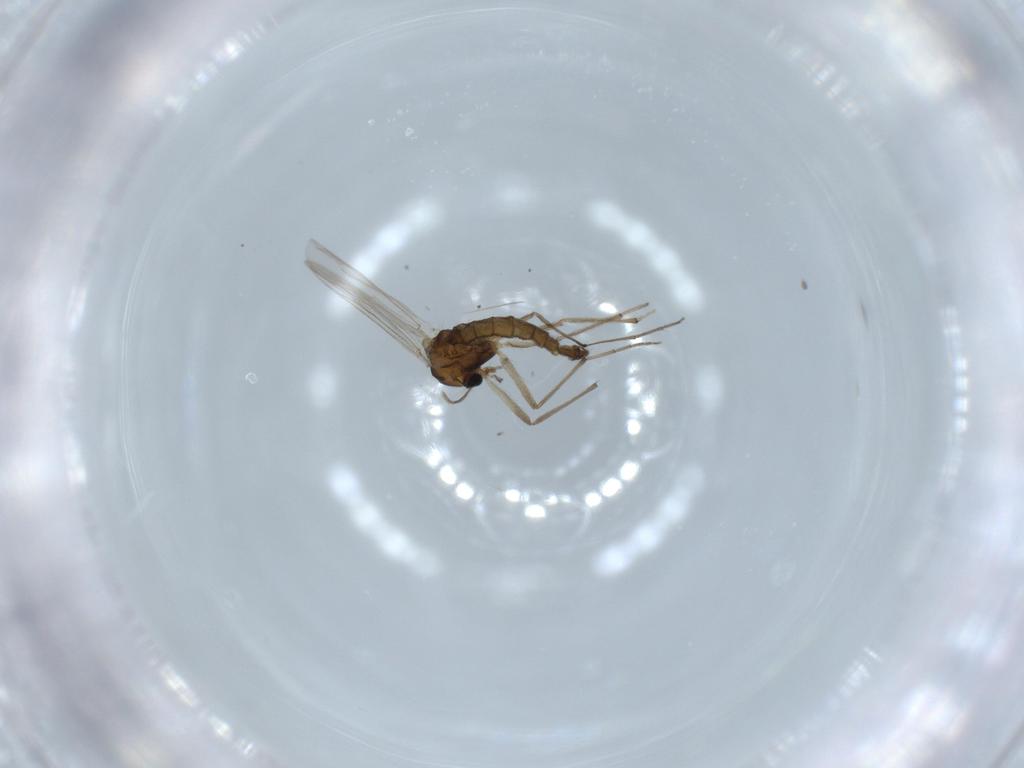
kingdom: Animalia
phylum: Arthropoda
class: Insecta
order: Diptera
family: Chironomidae
